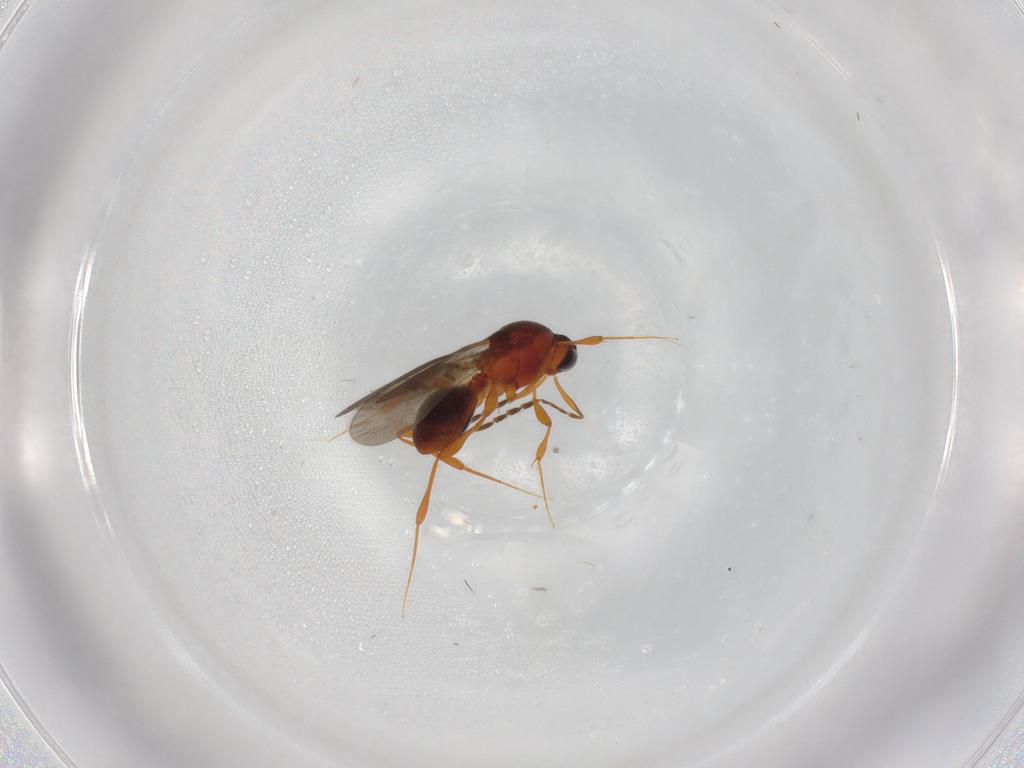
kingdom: Animalia
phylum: Arthropoda
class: Insecta
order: Hymenoptera
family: Platygastridae
